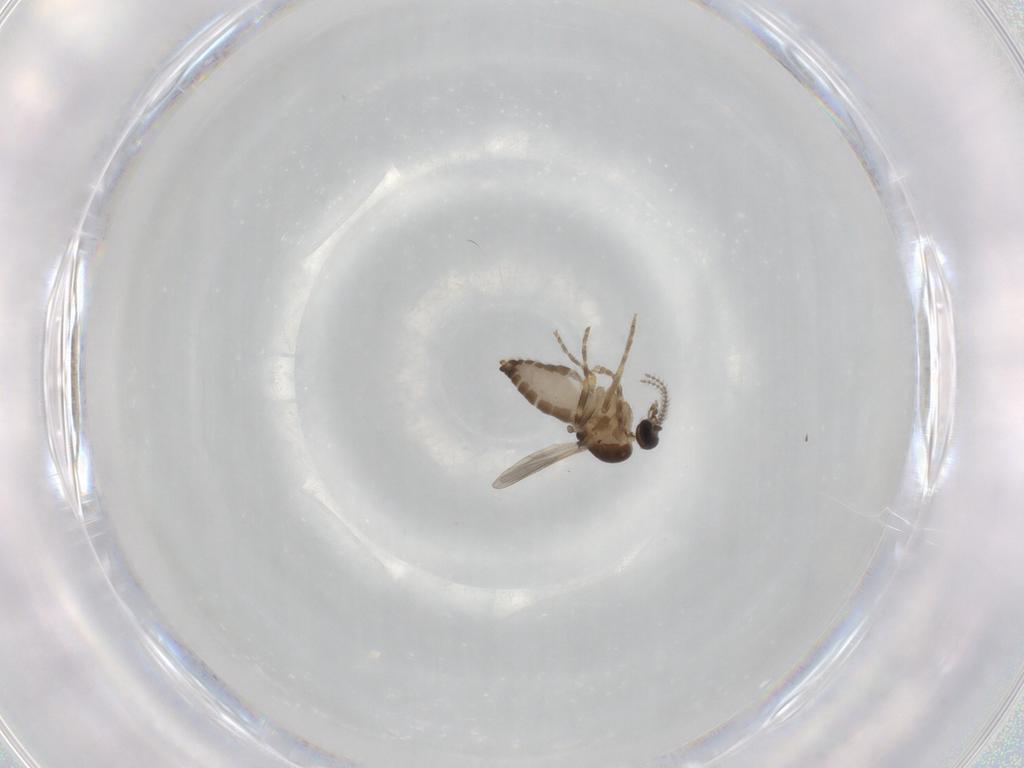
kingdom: Animalia
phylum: Arthropoda
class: Insecta
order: Diptera
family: Ceratopogonidae
